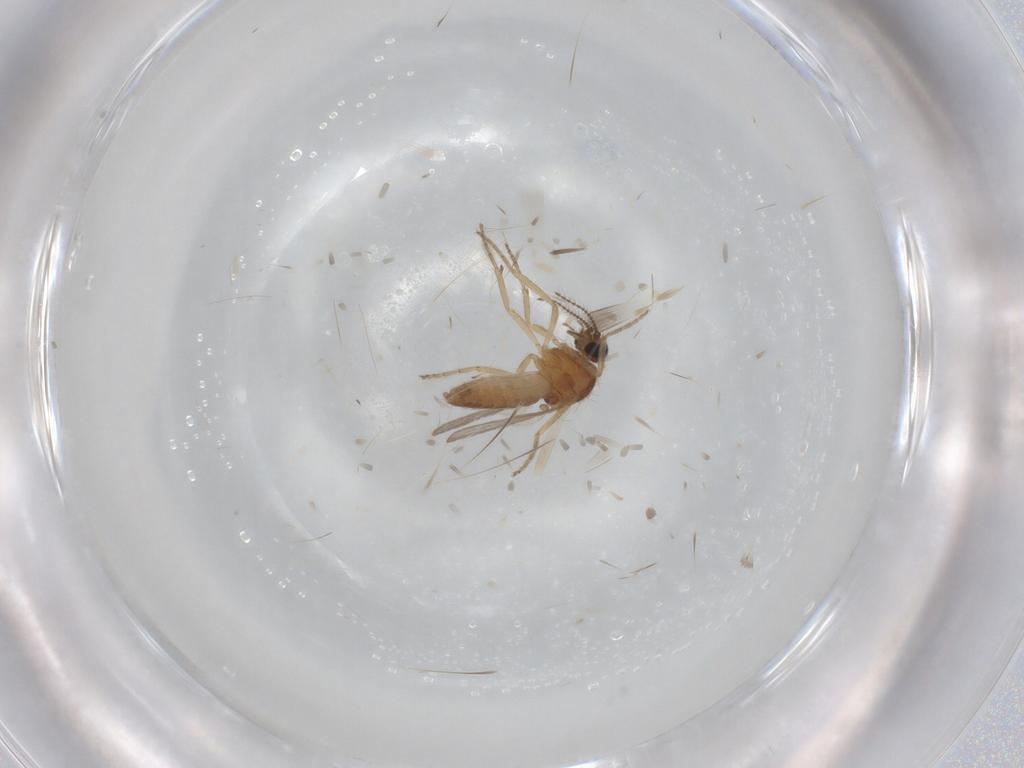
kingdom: Animalia
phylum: Arthropoda
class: Insecta
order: Diptera
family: Ceratopogonidae
